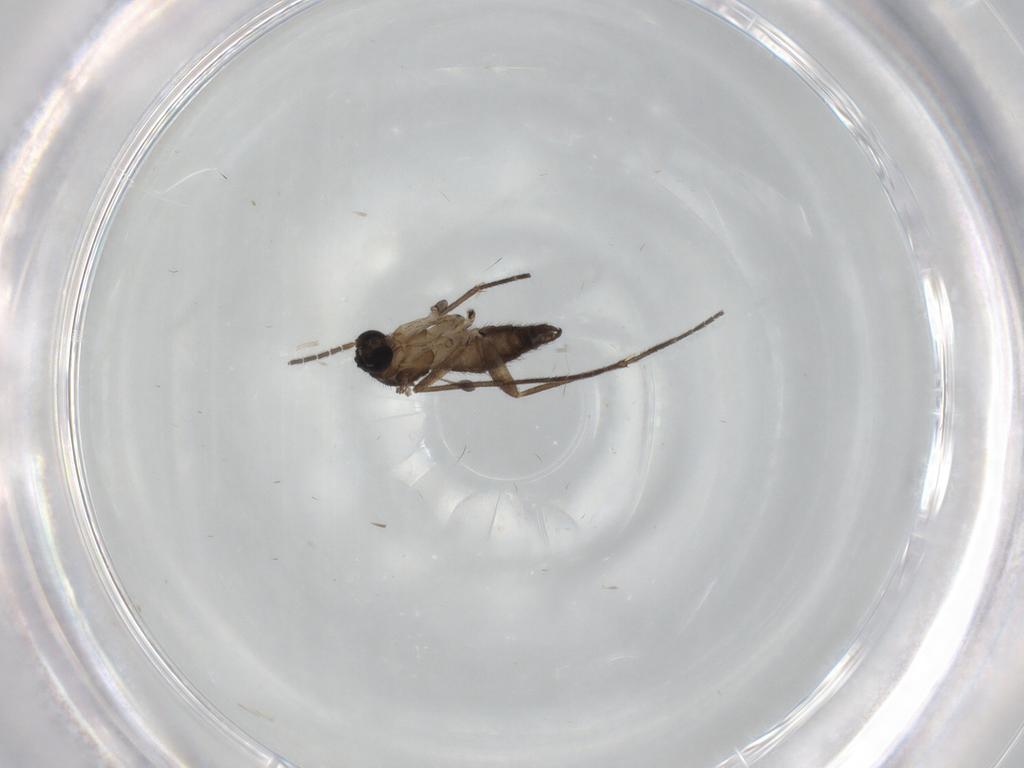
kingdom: Animalia
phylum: Arthropoda
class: Insecta
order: Diptera
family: Sciaridae
